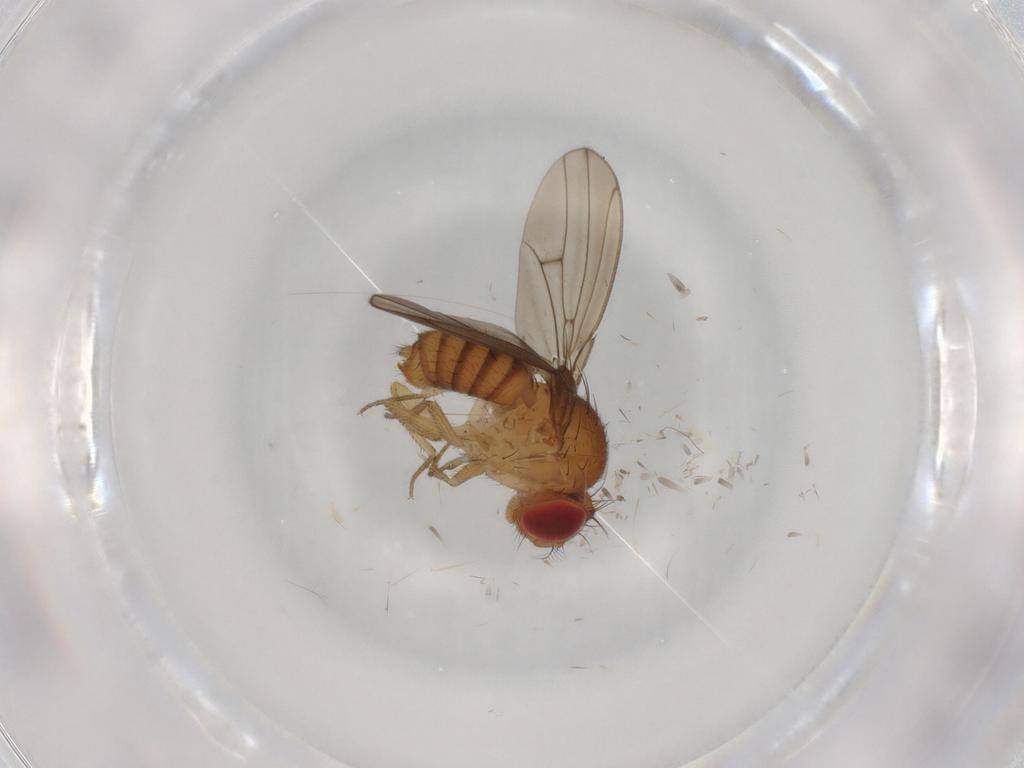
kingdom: Animalia
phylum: Arthropoda
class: Insecta
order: Diptera
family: Drosophilidae
